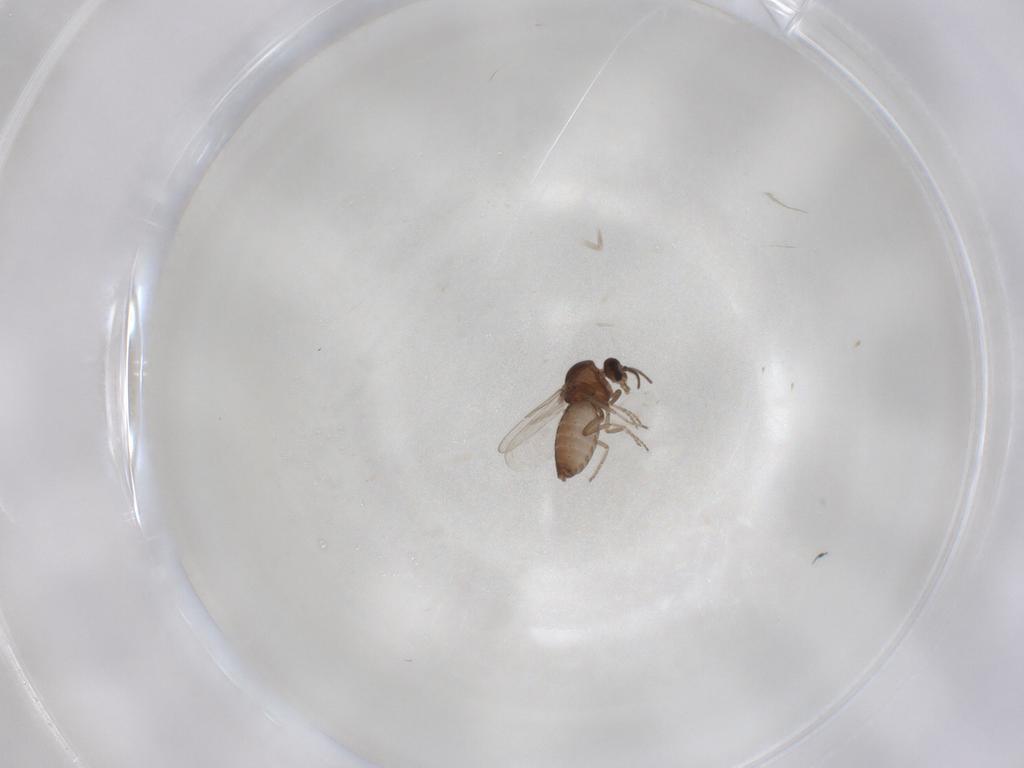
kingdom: Animalia
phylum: Arthropoda
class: Insecta
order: Diptera
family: Ceratopogonidae
